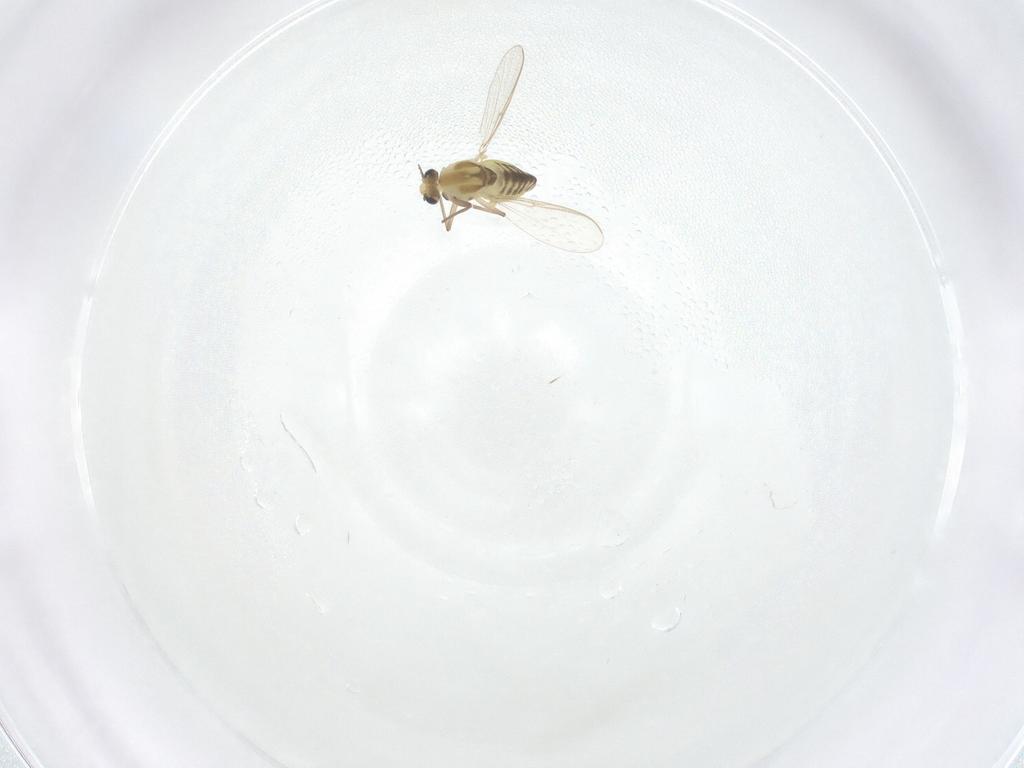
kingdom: Animalia
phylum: Arthropoda
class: Insecta
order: Diptera
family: Chironomidae
